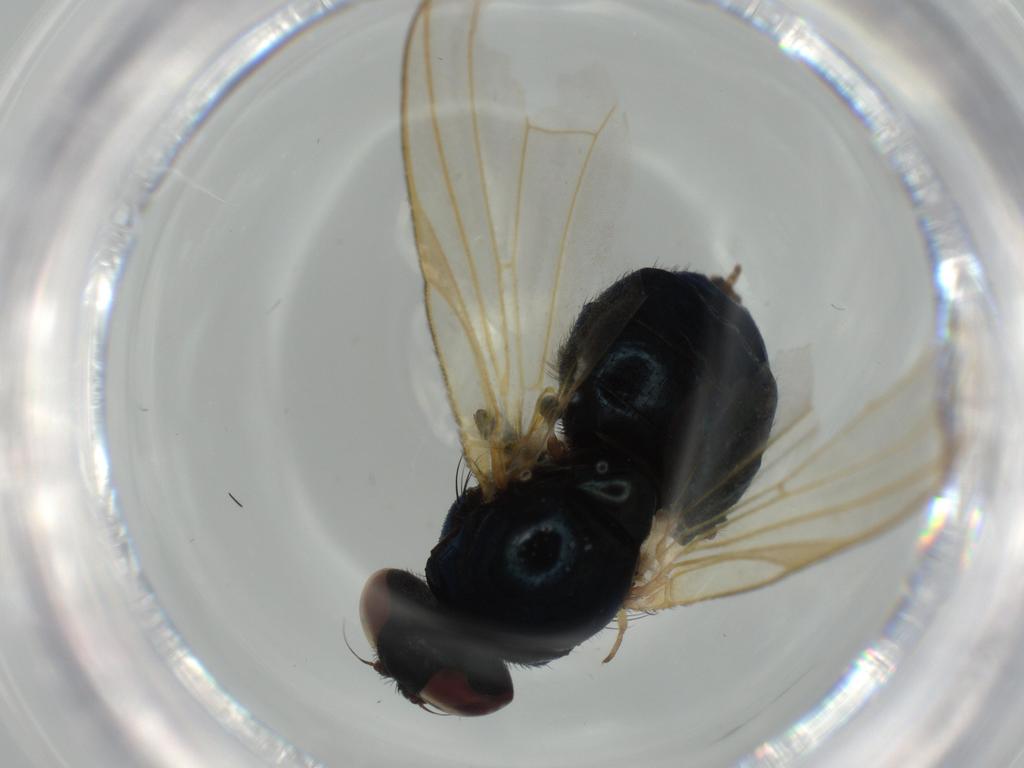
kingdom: Animalia
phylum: Arthropoda
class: Insecta
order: Diptera
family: Lonchaeidae
